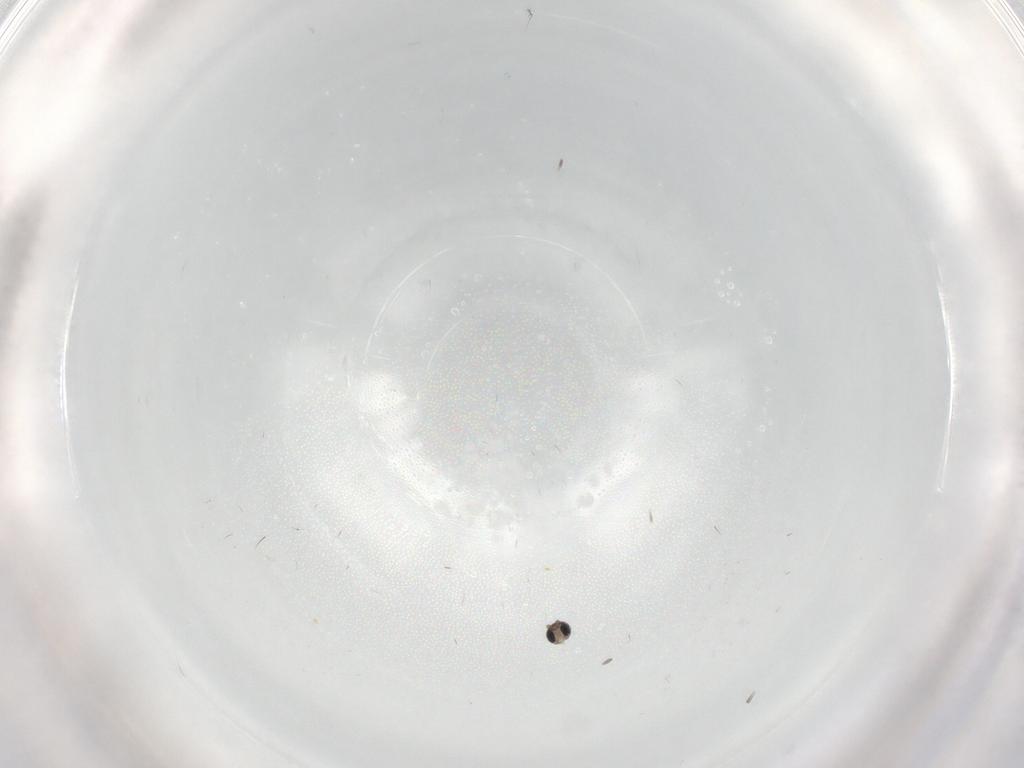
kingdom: Animalia
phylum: Arthropoda
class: Insecta
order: Diptera
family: Cecidomyiidae
